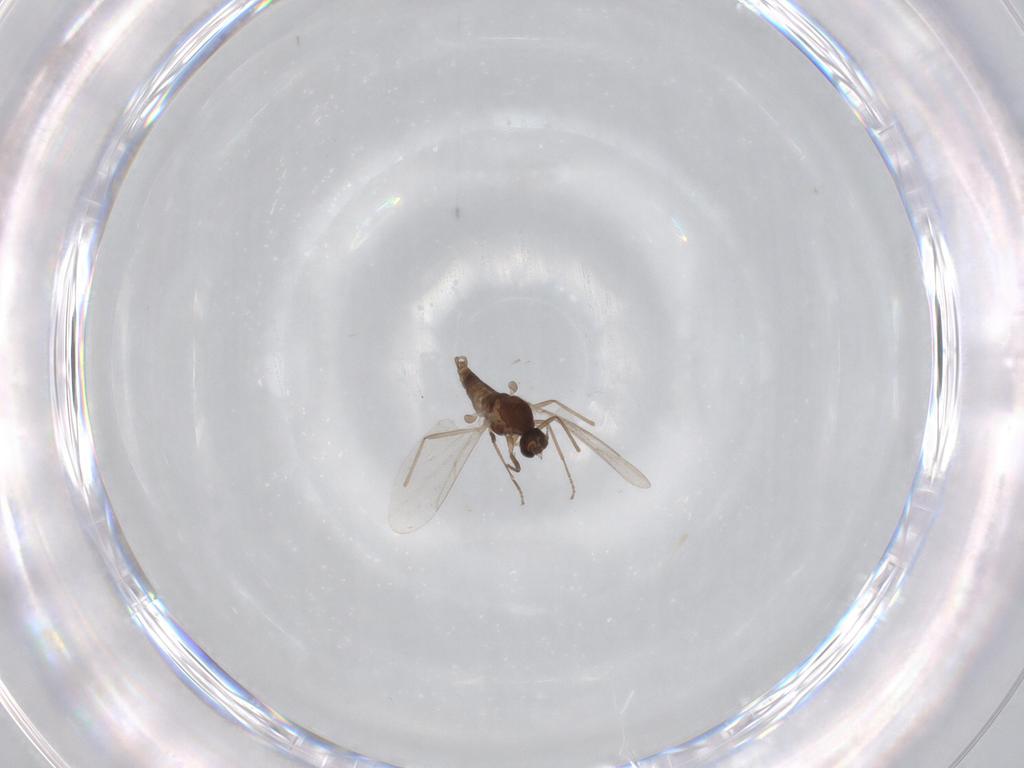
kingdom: Animalia
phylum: Arthropoda
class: Insecta
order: Diptera
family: Cecidomyiidae
